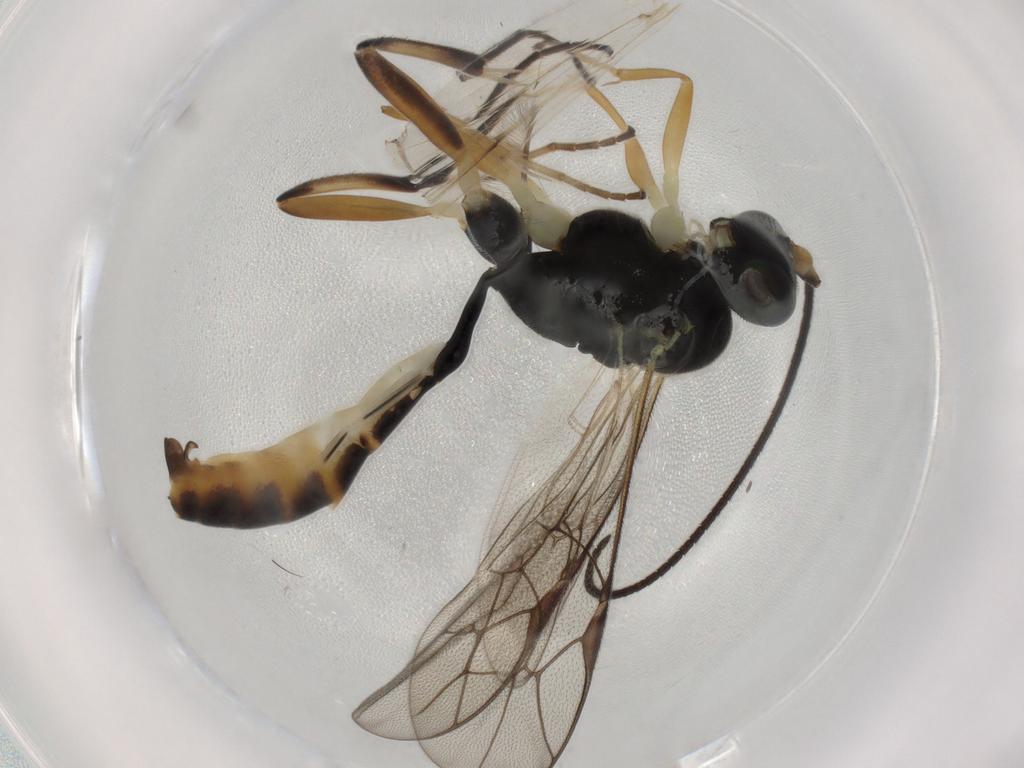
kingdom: Animalia
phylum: Arthropoda
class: Insecta
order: Hymenoptera
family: Ichneumonidae
